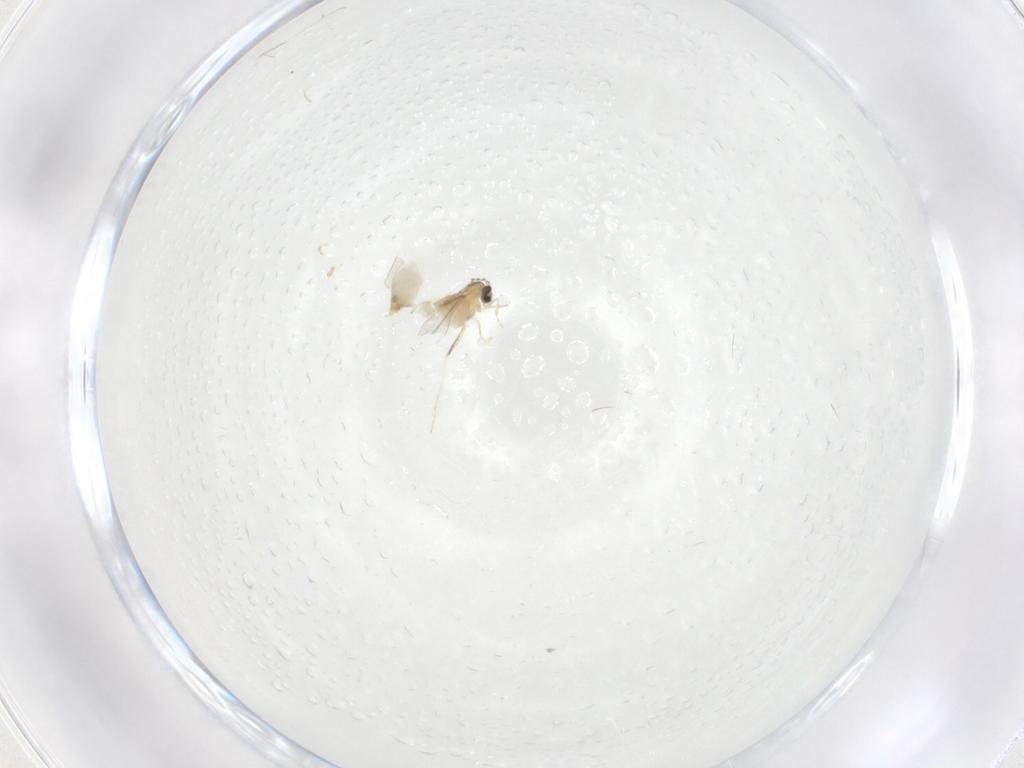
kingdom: Animalia
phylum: Arthropoda
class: Insecta
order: Diptera
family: Cecidomyiidae
